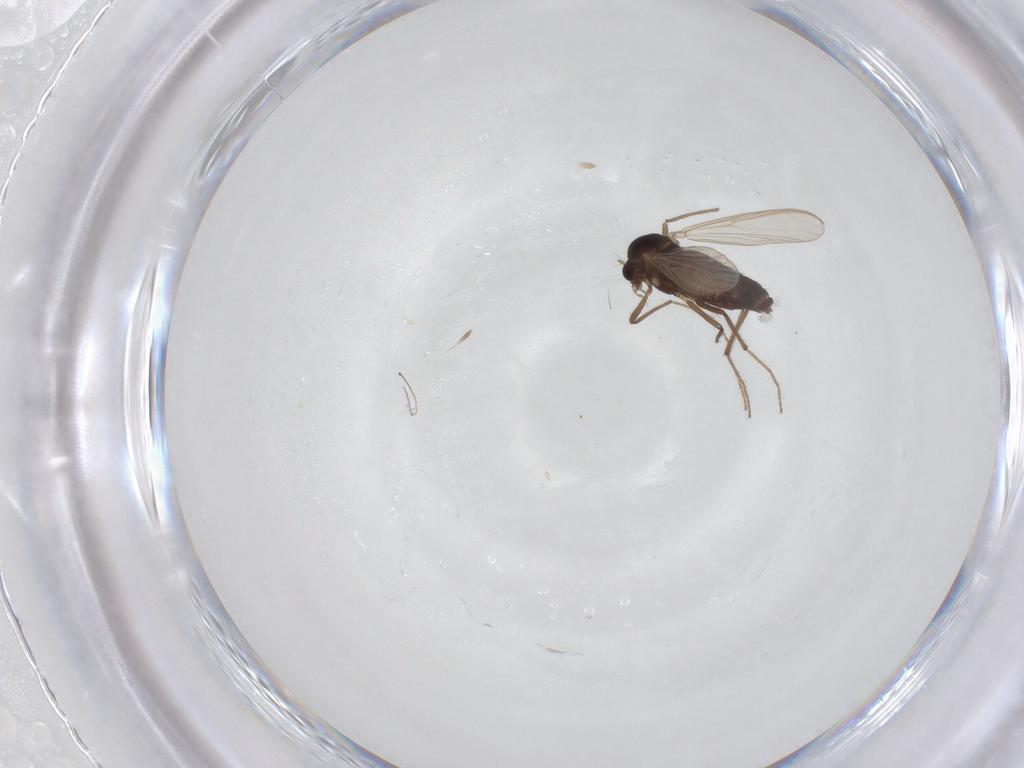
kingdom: Animalia
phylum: Arthropoda
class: Insecta
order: Diptera
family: Chironomidae
